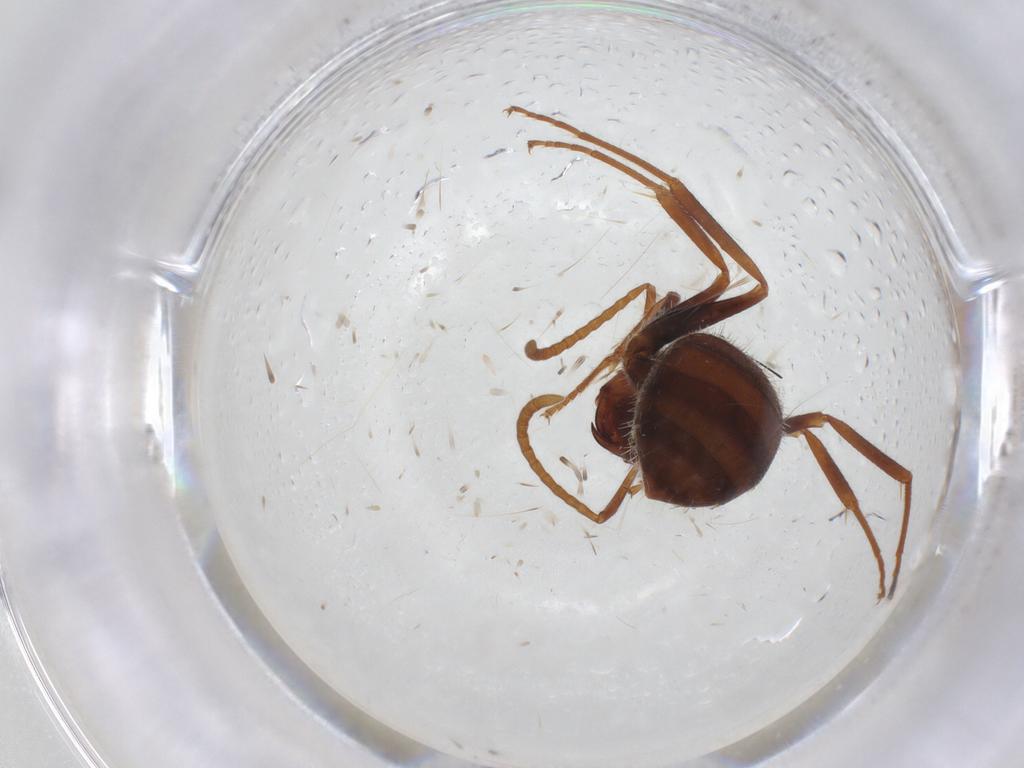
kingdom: Animalia
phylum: Arthropoda
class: Insecta
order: Hymenoptera
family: Formicidae
